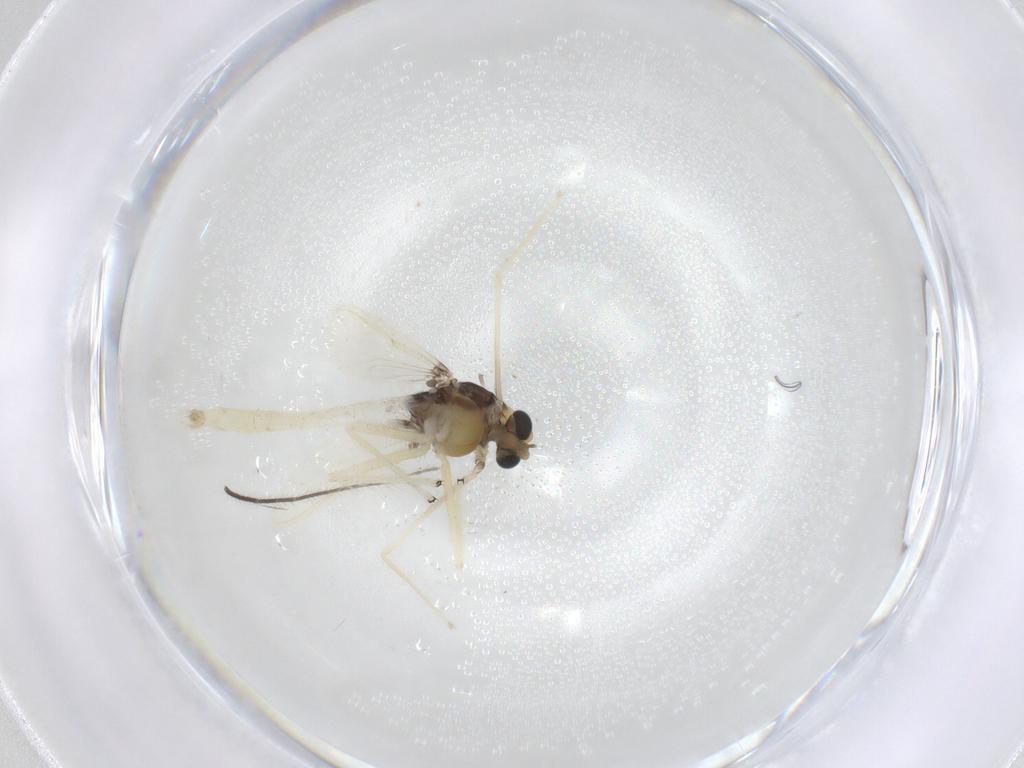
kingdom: Animalia
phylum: Arthropoda
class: Insecta
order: Diptera
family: Chironomidae
